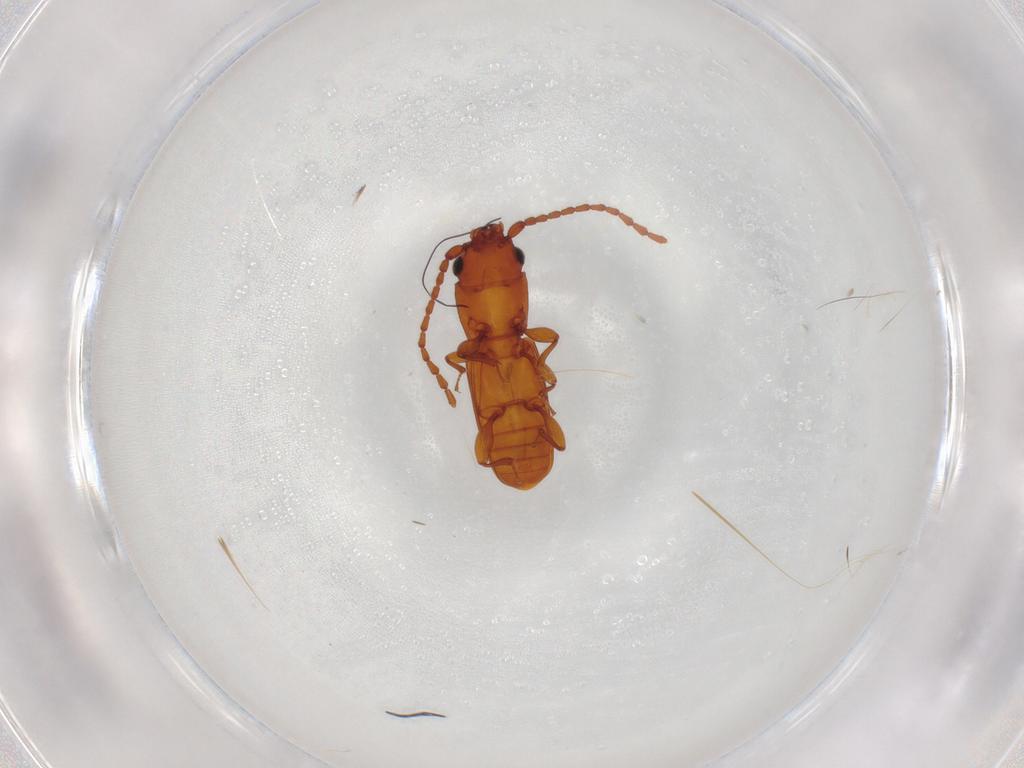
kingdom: Animalia
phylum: Arthropoda
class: Insecta
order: Coleoptera
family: Laemophloeidae
